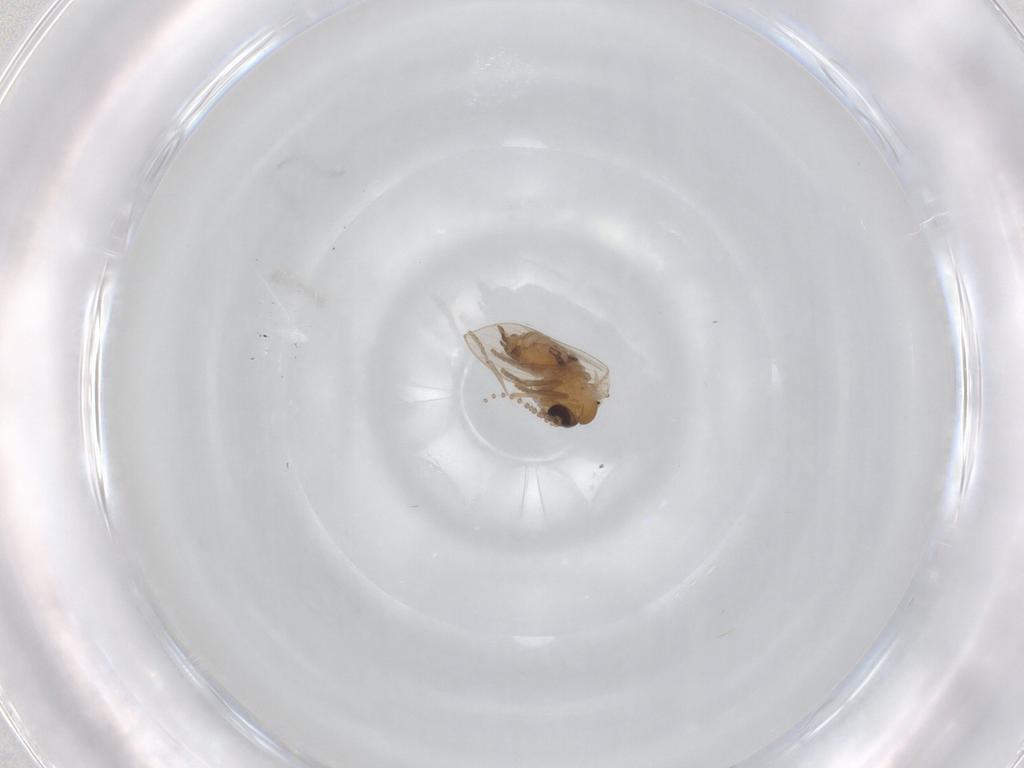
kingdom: Animalia
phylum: Arthropoda
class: Insecta
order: Diptera
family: Psychodidae
